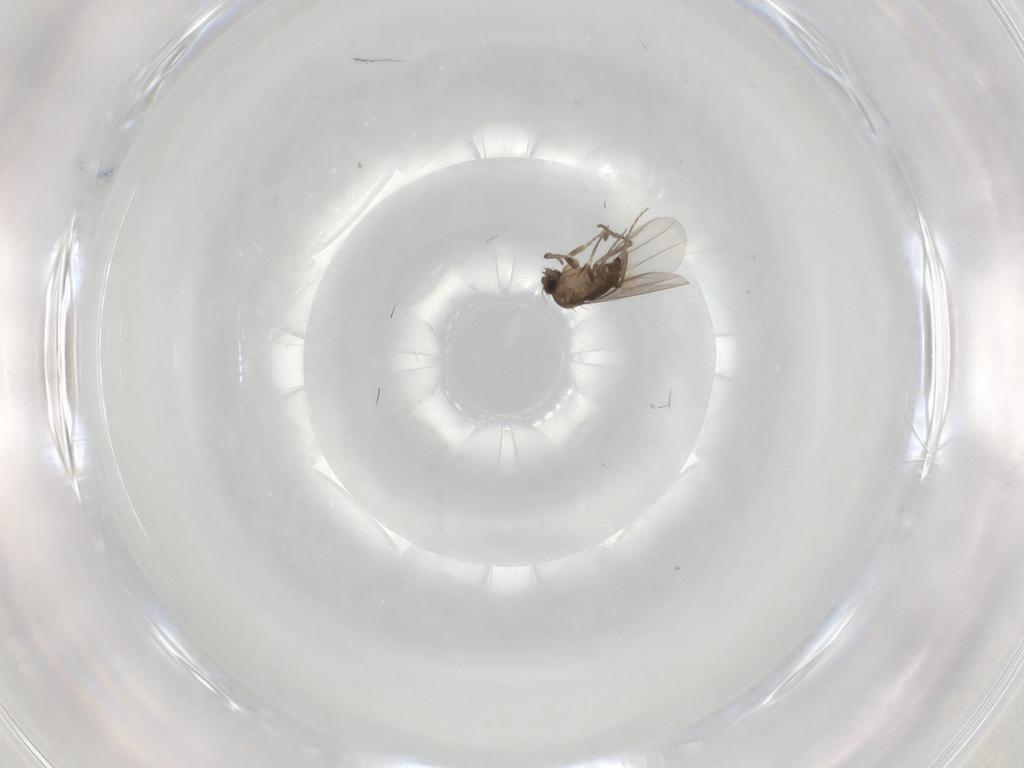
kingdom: Animalia
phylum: Arthropoda
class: Insecta
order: Diptera
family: Phoridae
